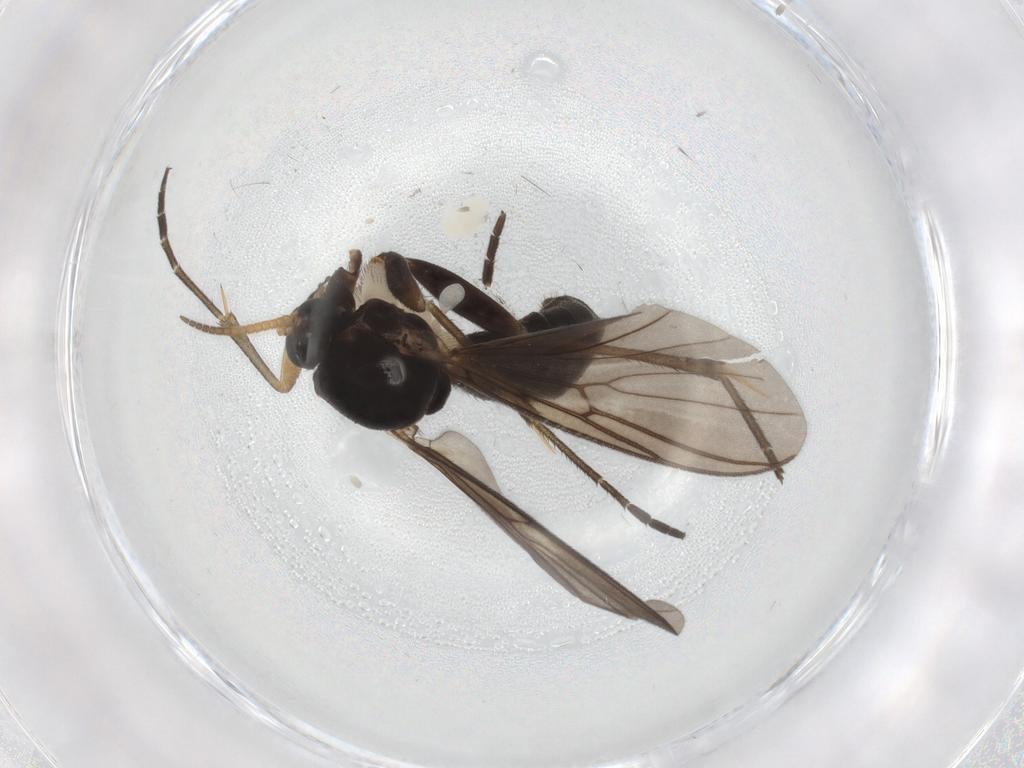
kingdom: Animalia
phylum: Arthropoda
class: Insecta
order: Diptera
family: Mycetophilidae
